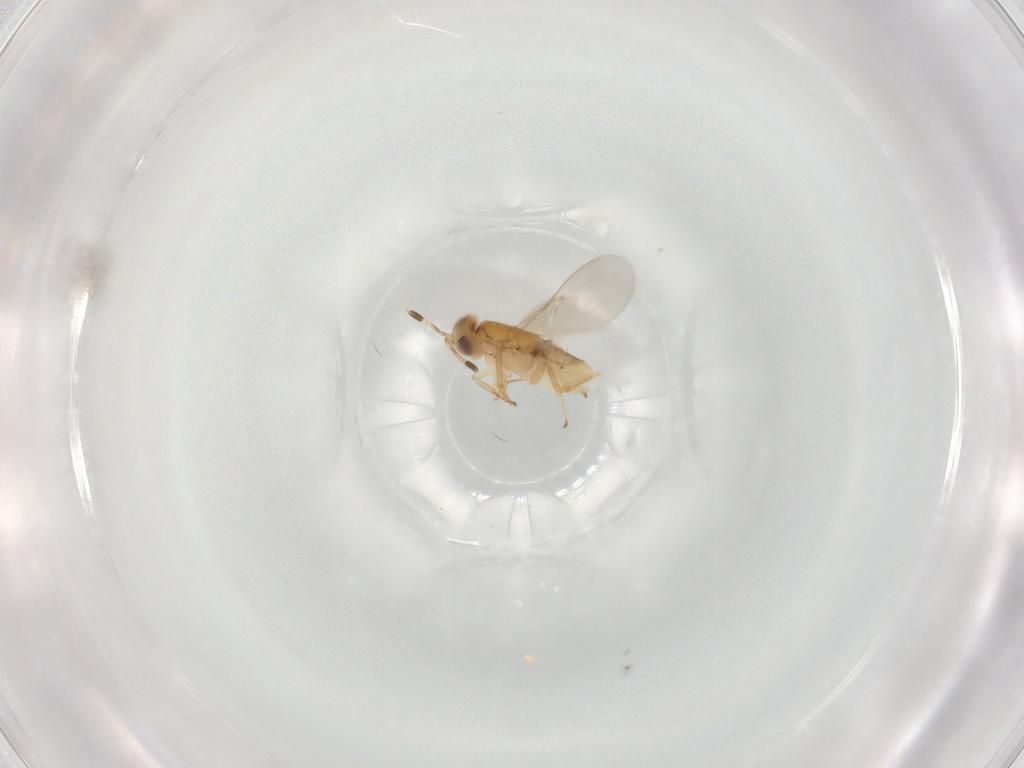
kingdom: Animalia
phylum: Arthropoda
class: Insecta
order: Hymenoptera
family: Encyrtidae
